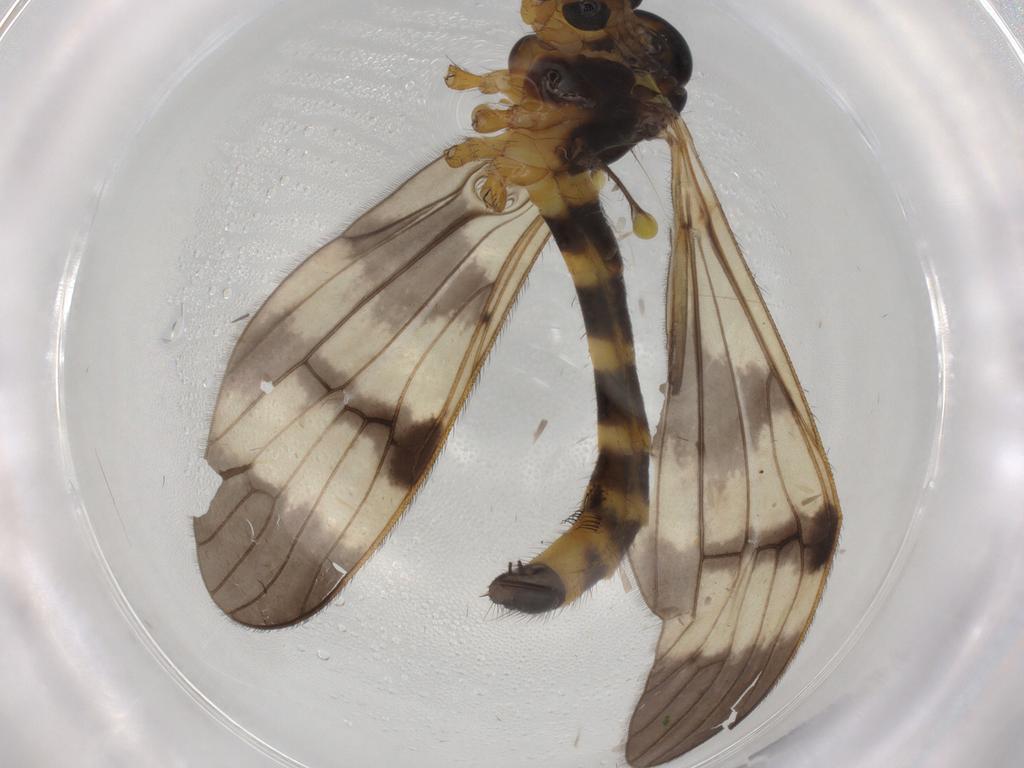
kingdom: Animalia
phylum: Arthropoda
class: Insecta
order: Diptera
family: Limoniidae
